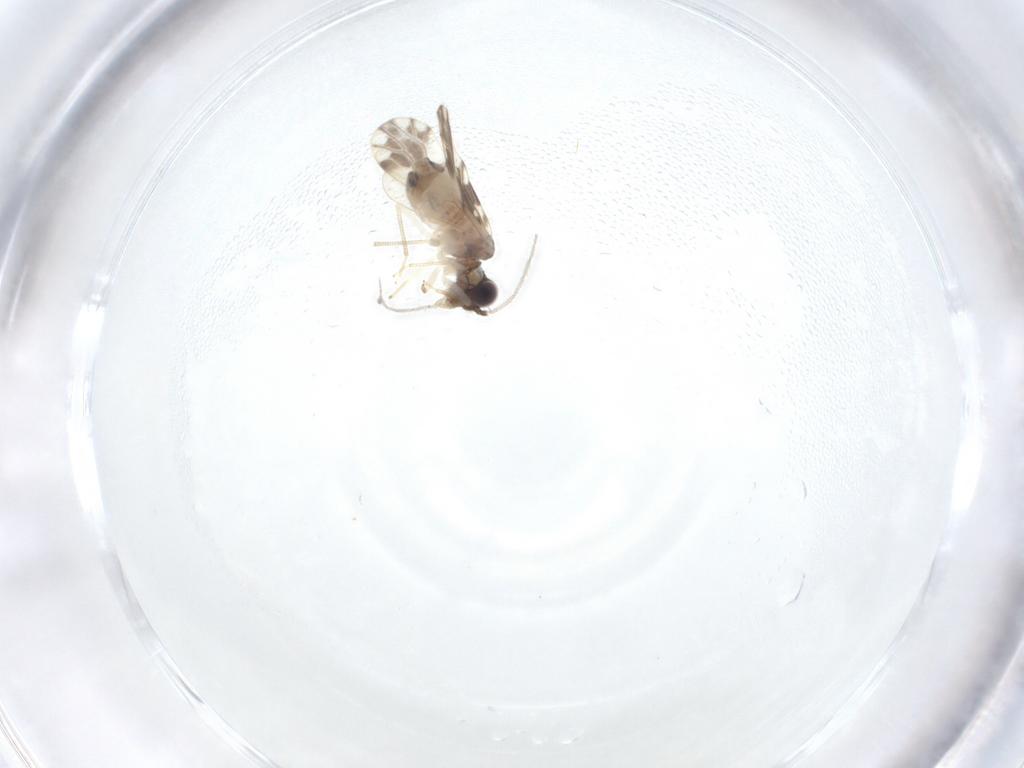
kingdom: Animalia
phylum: Arthropoda
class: Insecta
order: Psocodea
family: Ectopsocidae
